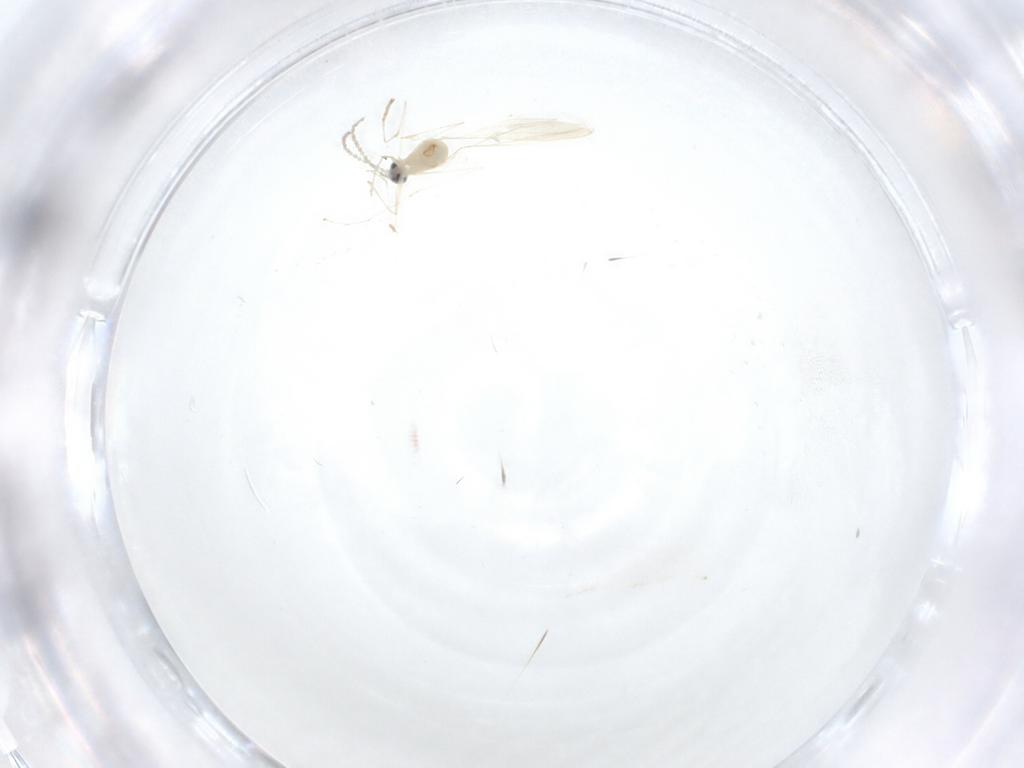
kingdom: Animalia
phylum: Arthropoda
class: Insecta
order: Diptera
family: Cecidomyiidae
